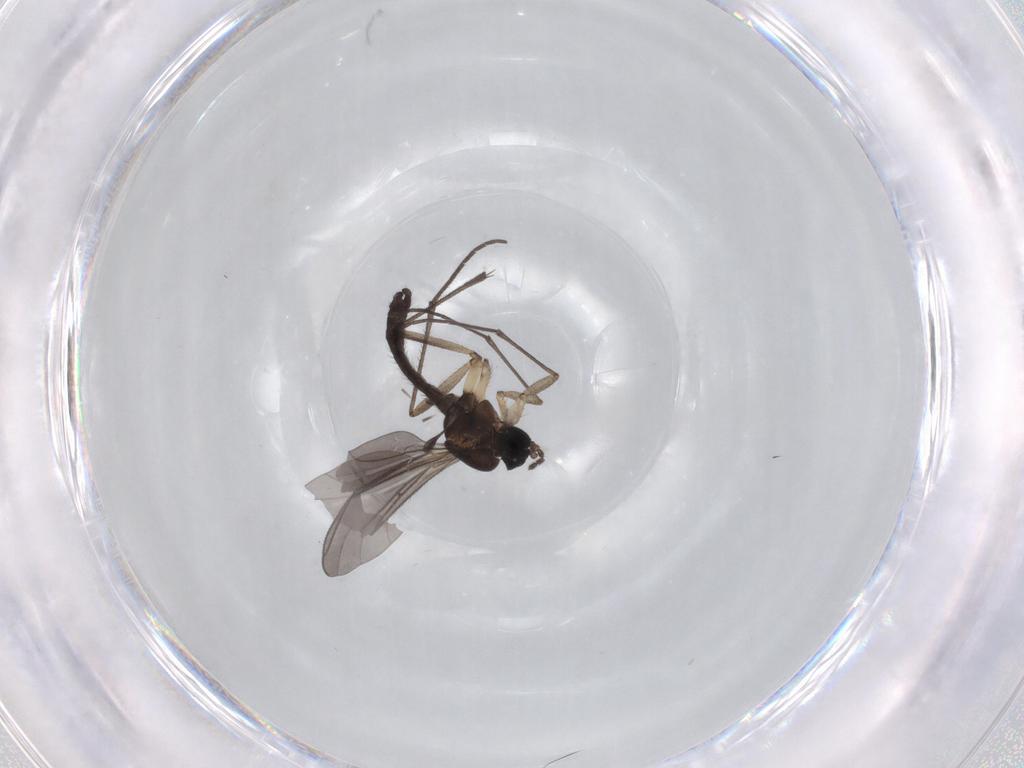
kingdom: Animalia
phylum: Arthropoda
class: Insecta
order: Diptera
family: Sciaridae
